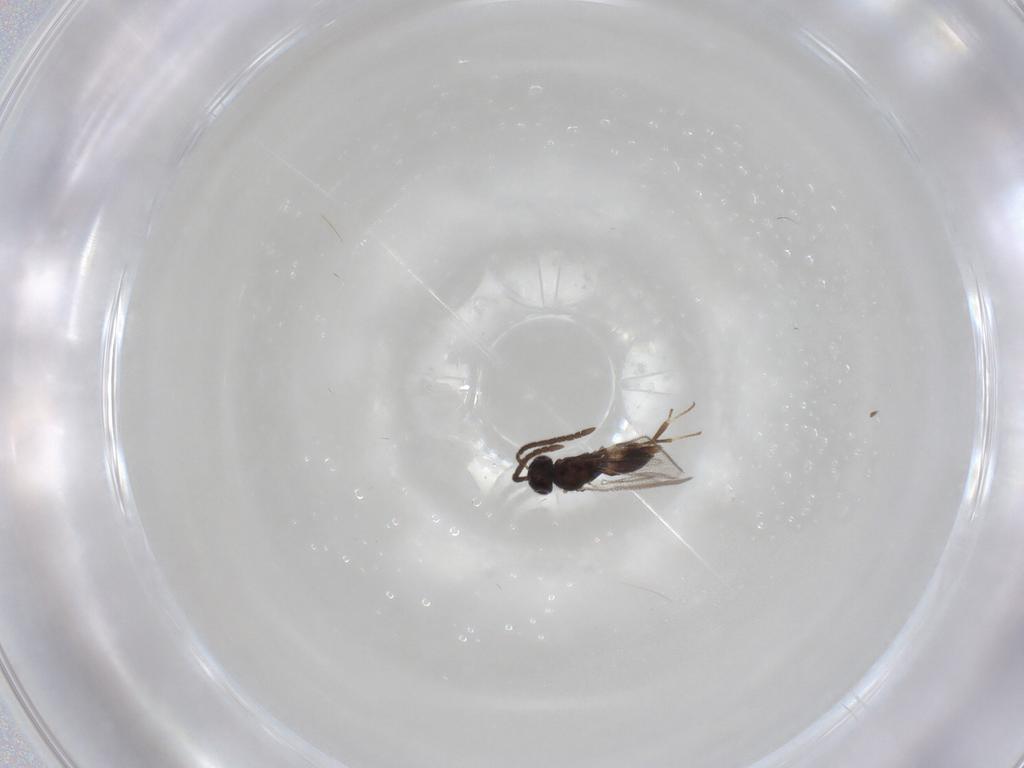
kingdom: Animalia
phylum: Arthropoda
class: Insecta
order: Hymenoptera
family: Eupelmidae
